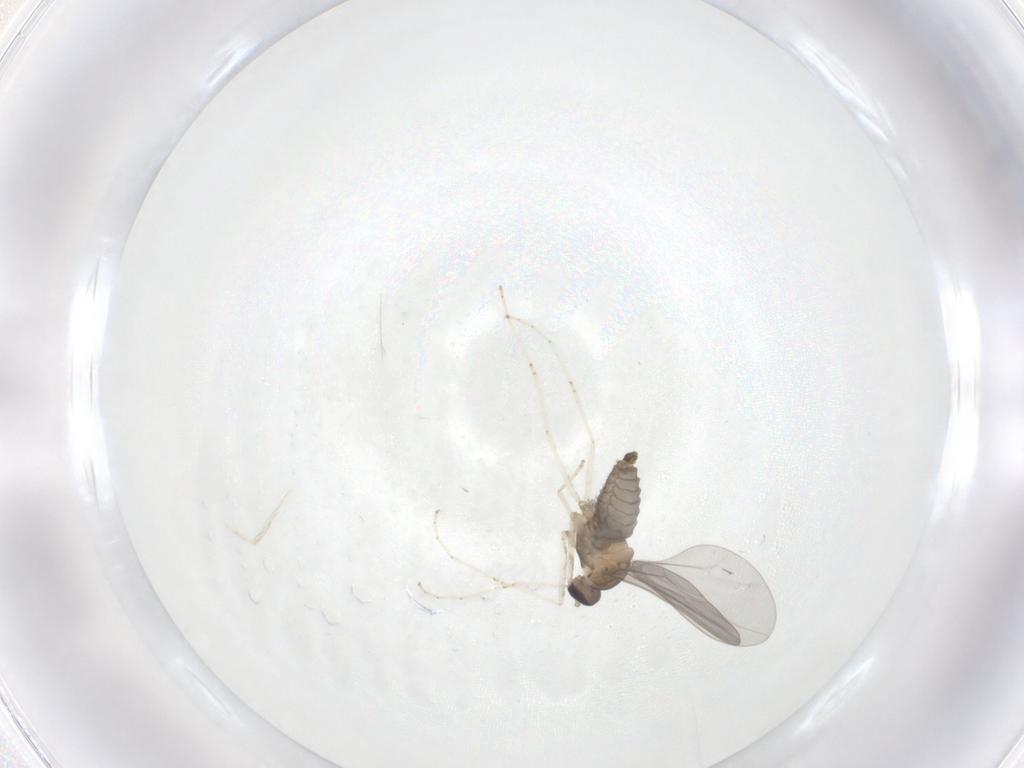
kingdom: Animalia
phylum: Arthropoda
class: Insecta
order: Diptera
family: Cecidomyiidae
